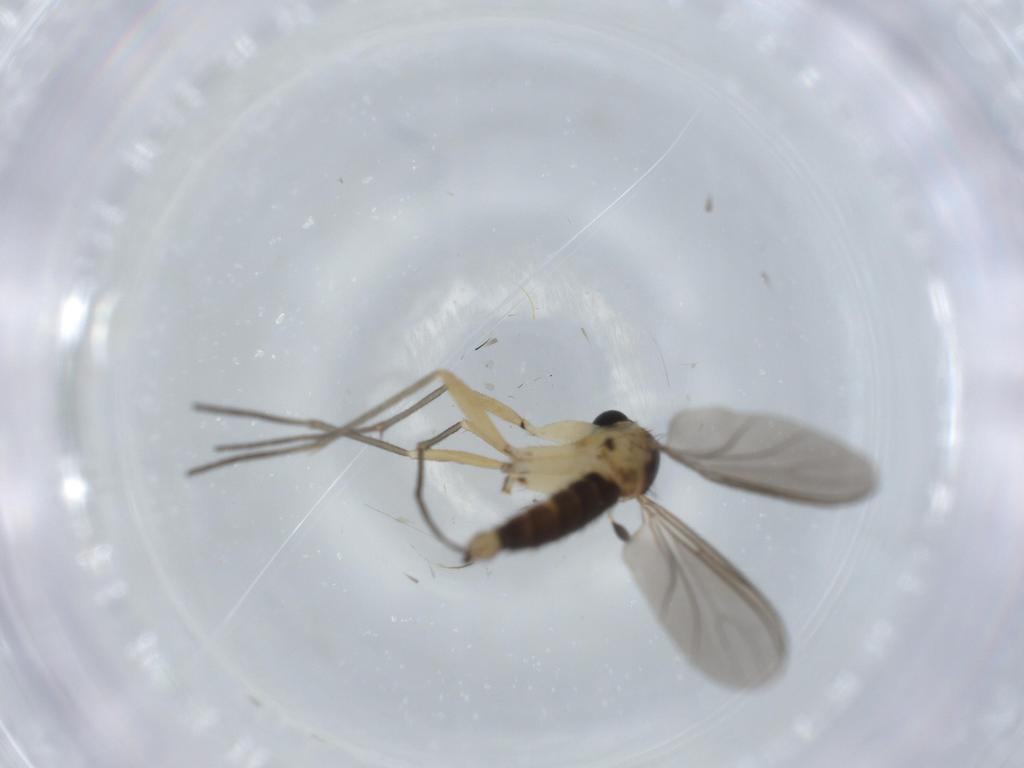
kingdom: Animalia
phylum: Arthropoda
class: Insecta
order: Diptera
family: Sciaridae
